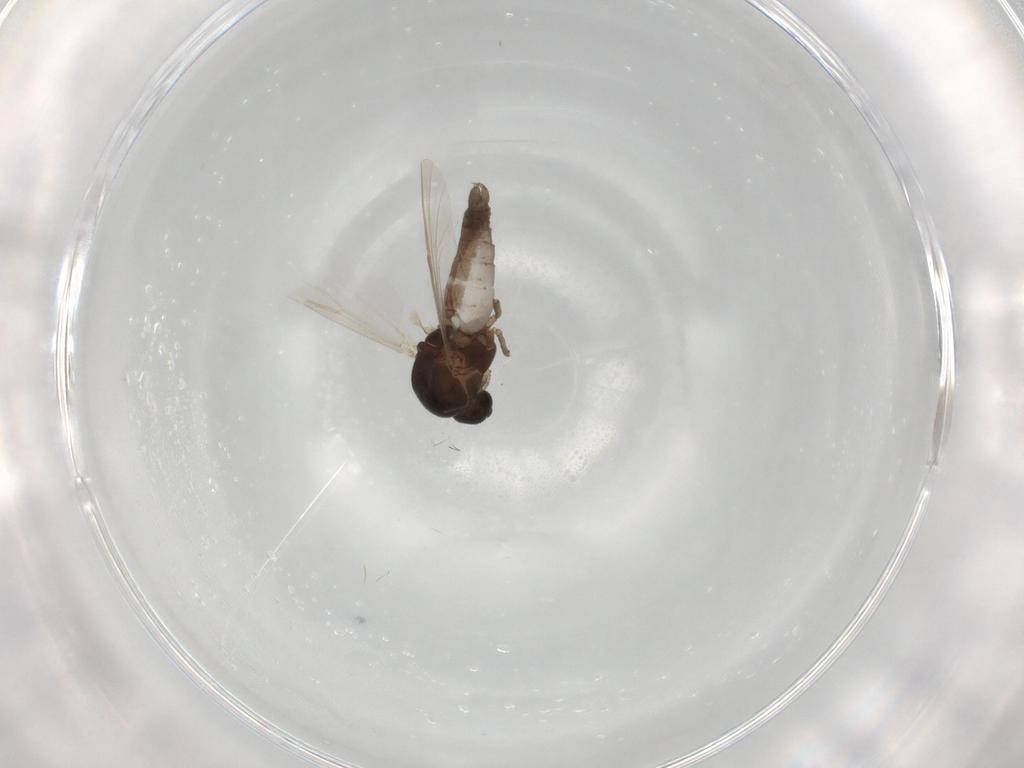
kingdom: Animalia
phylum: Arthropoda
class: Insecta
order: Diptera
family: Ceratopogonidae
